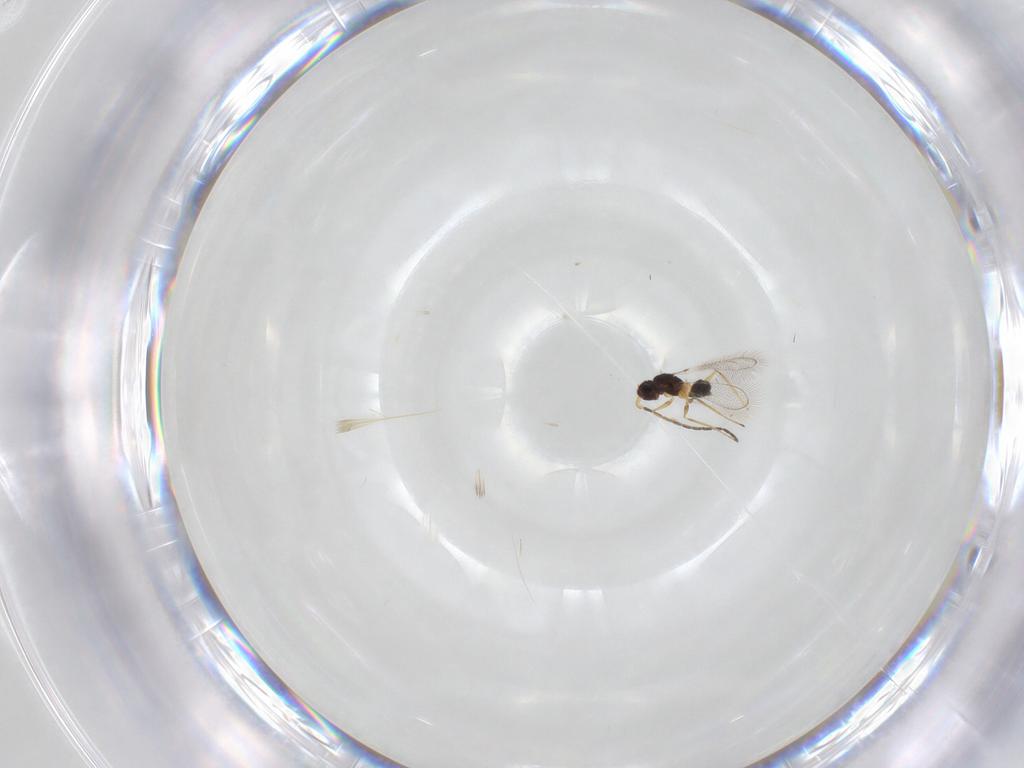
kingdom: Animalia
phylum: Arthropoda
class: Insecta
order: Hymenoptera
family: Mymaridae
